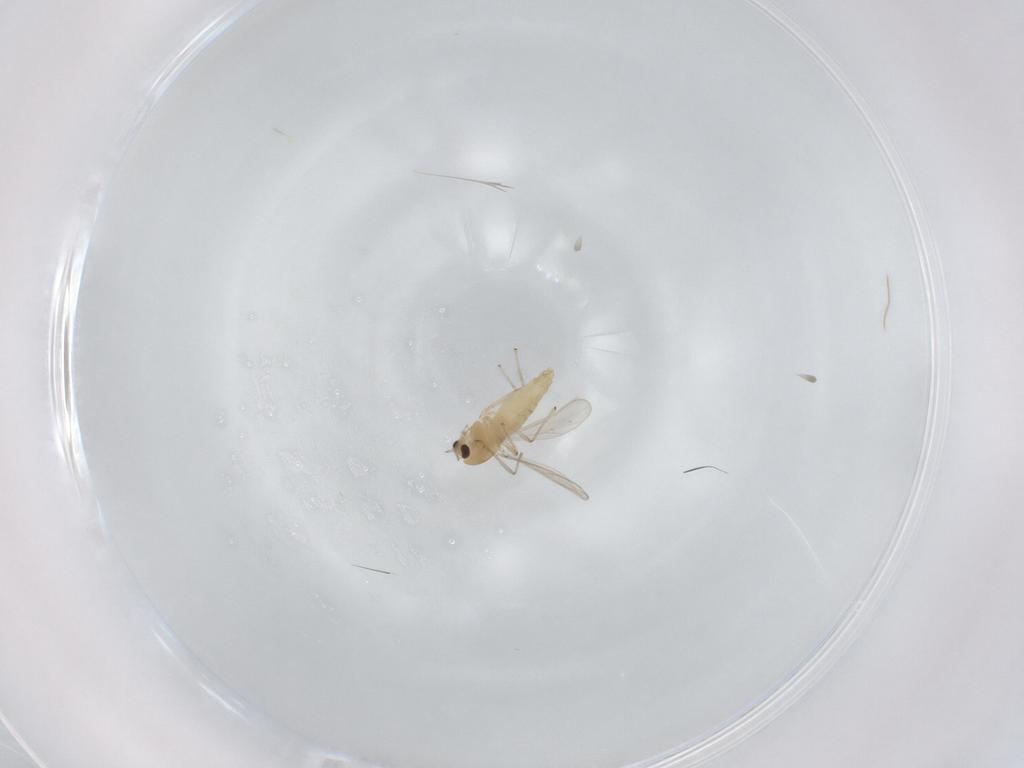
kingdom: Animalia
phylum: Arthropoda
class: Insecta
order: Diptera
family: Chironomidae
